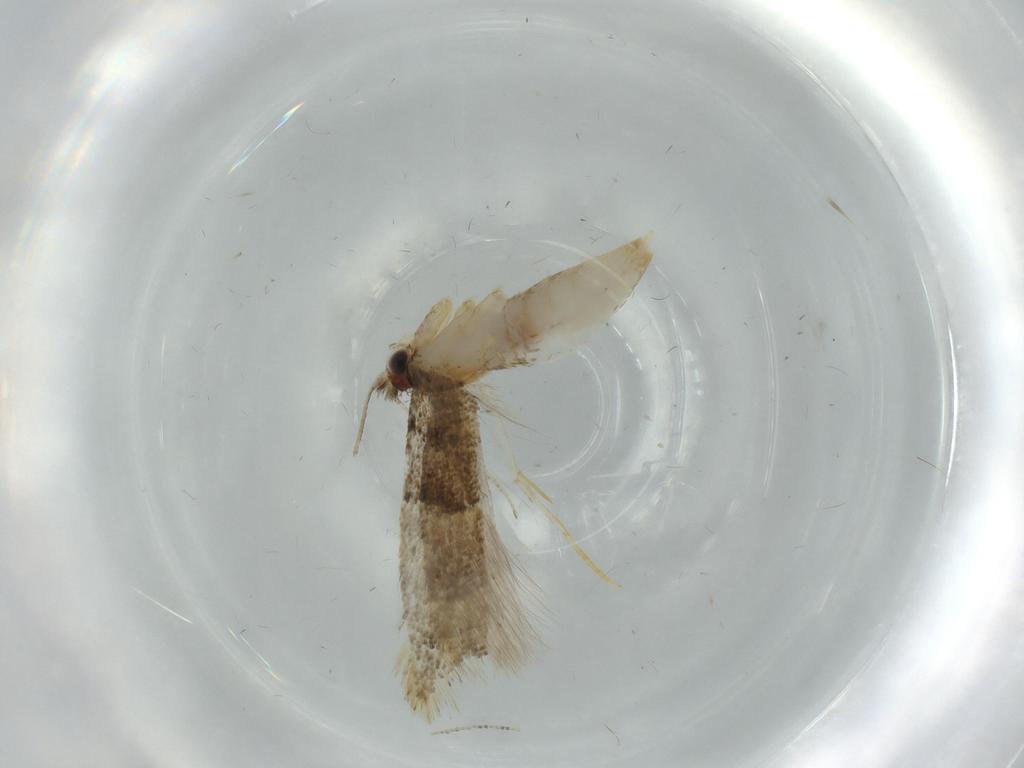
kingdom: Animalia
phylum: Arthropoda
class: Insecta
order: Lepidoptera
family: Tineidae
